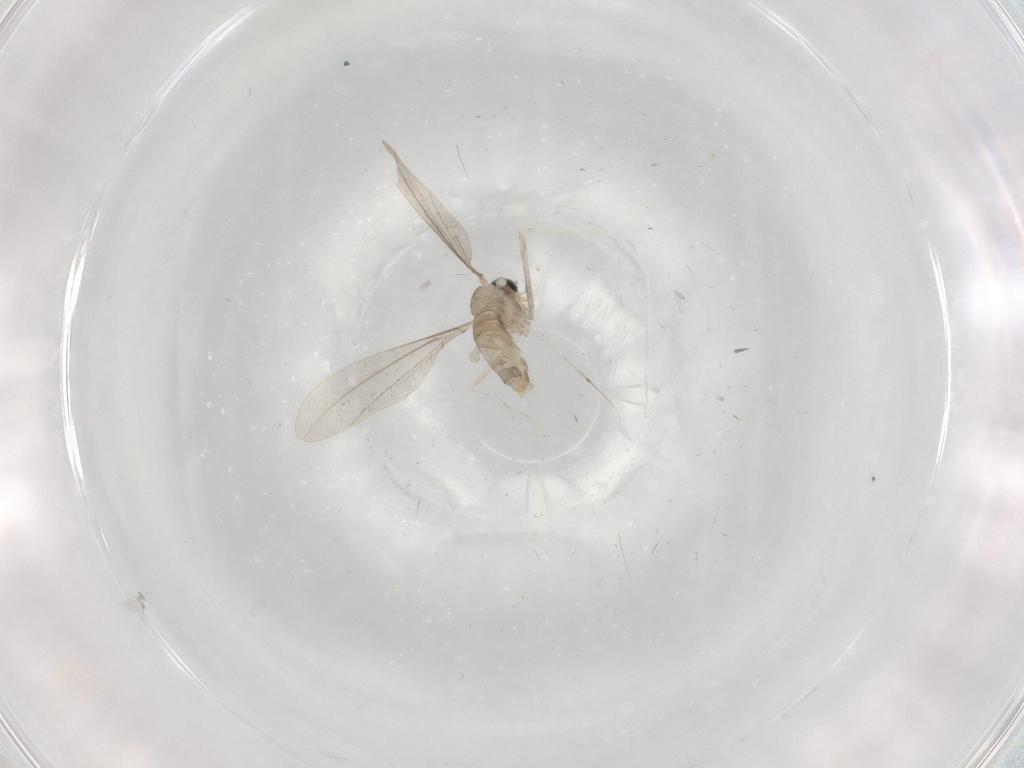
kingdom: Animalia
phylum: Arthropoda
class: Insecta
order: Diptera
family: Cecidomyiidae
